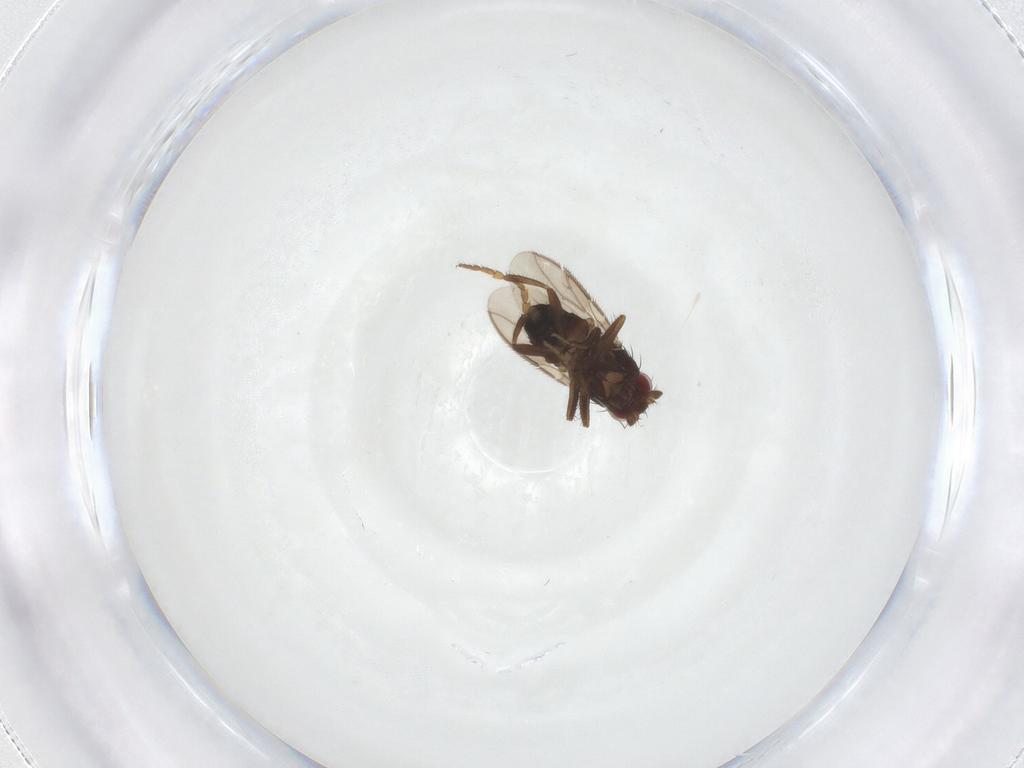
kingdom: Animalia
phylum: Arthropoda
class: Insecta
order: Diptera
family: Sphaeroceridae
